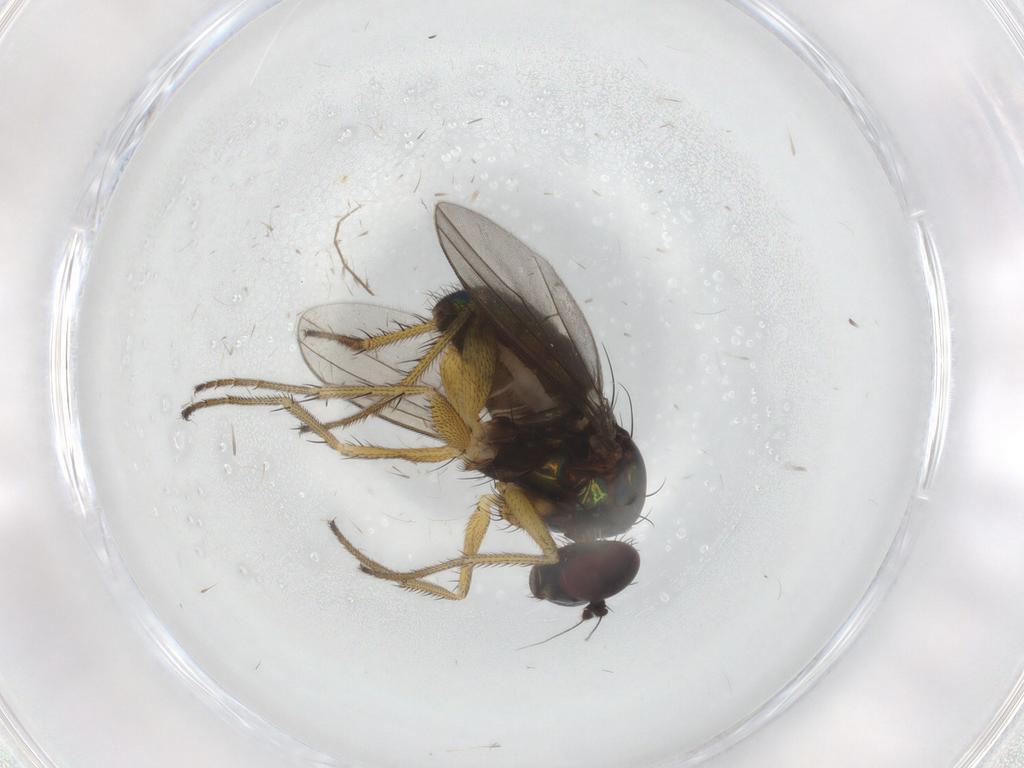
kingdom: Animalia
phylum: Arthropoda
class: Insecta
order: Diptera
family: Dolichopodidae
